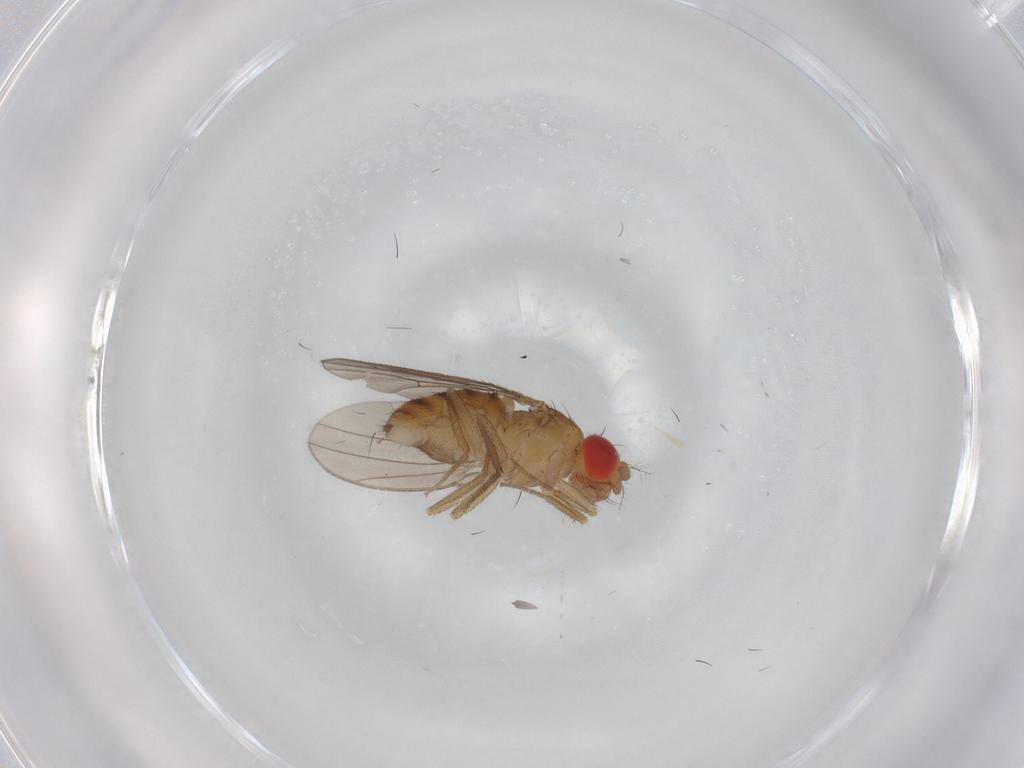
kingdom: Animalia
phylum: Arthropoda
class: Insecta
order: Diptera
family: Drosophilidae
